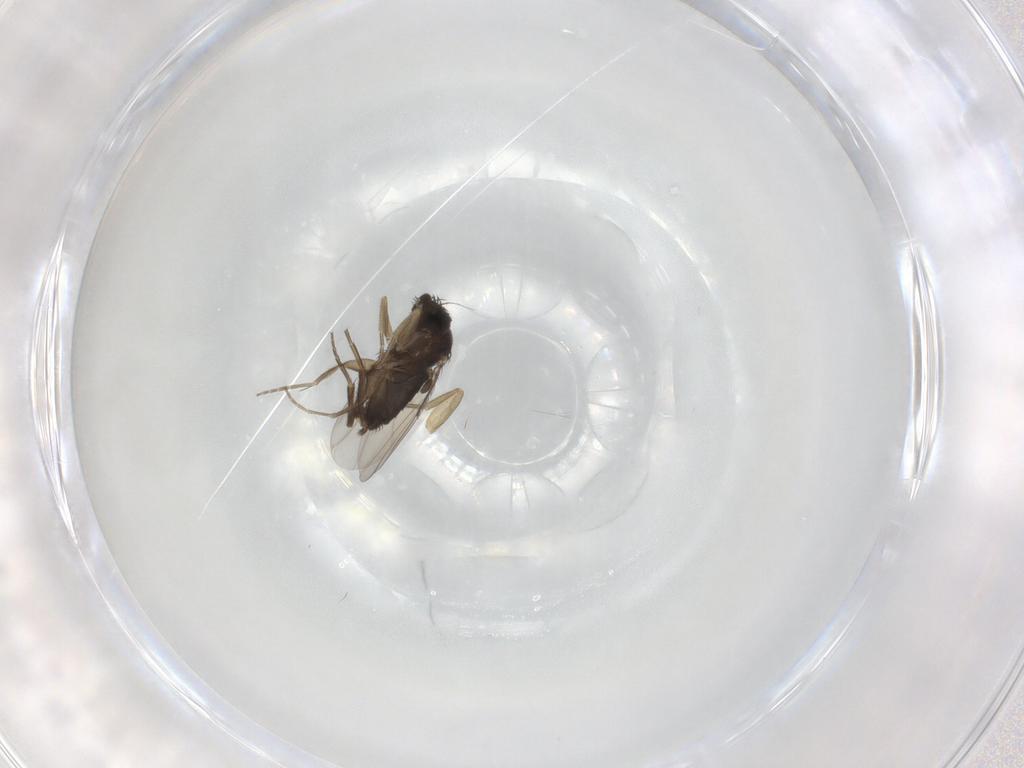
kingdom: Animalia
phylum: Arthropoda
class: Insecta
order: Diptera
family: Phoridae
